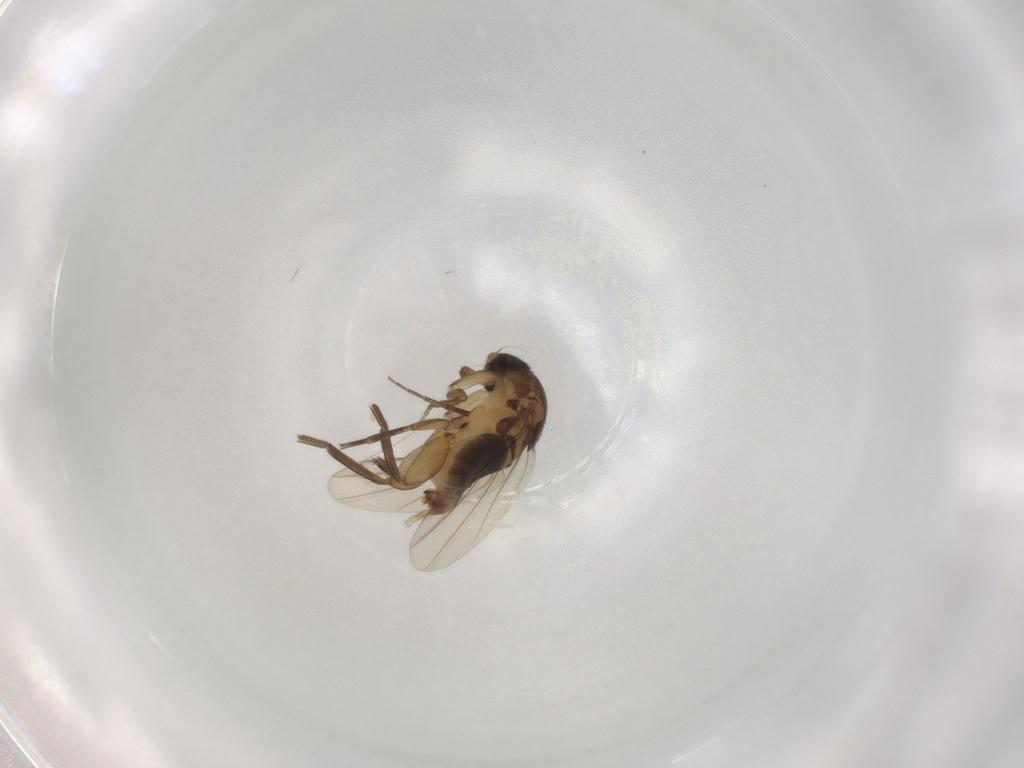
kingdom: Animalia
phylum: Arthropoda
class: Insecta
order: Diptera
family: Phoridae
